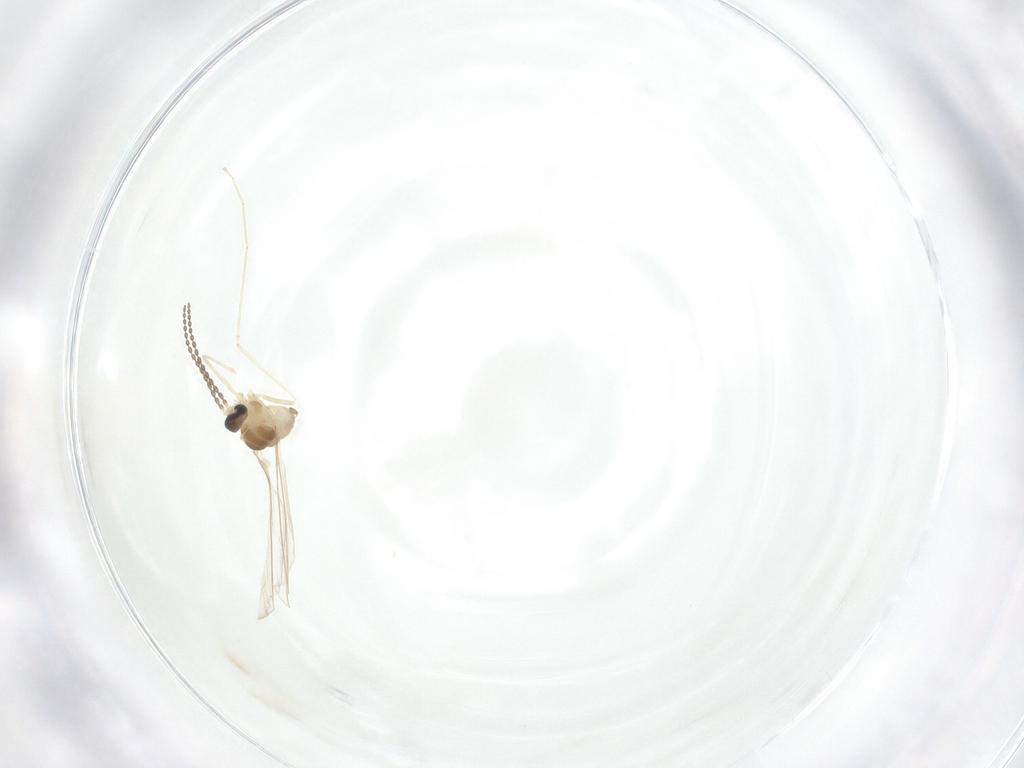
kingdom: Animalia
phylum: Arthropoda
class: Insecta
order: Diptera
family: Cecidomyiidae
